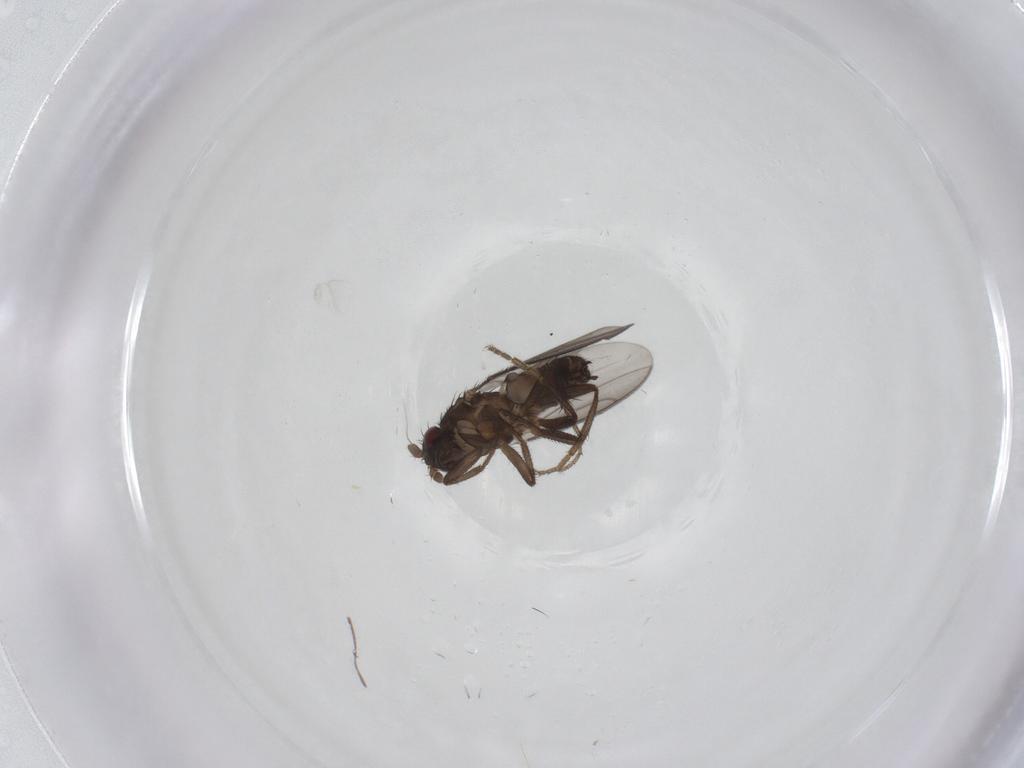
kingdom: Animalia
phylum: Arthropoda
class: Insecta
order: Diptera
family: Sphaeroceridae
